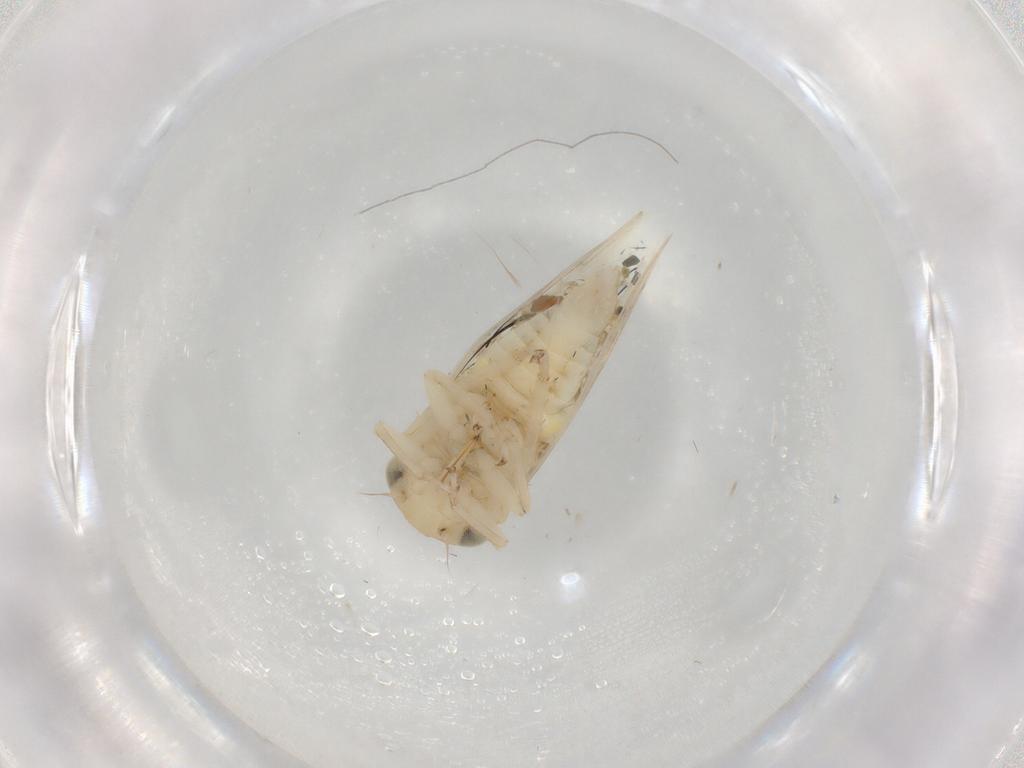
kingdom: Animalia
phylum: Arthropoda
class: Insecta
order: Hemiptera
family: Cicadellidae
